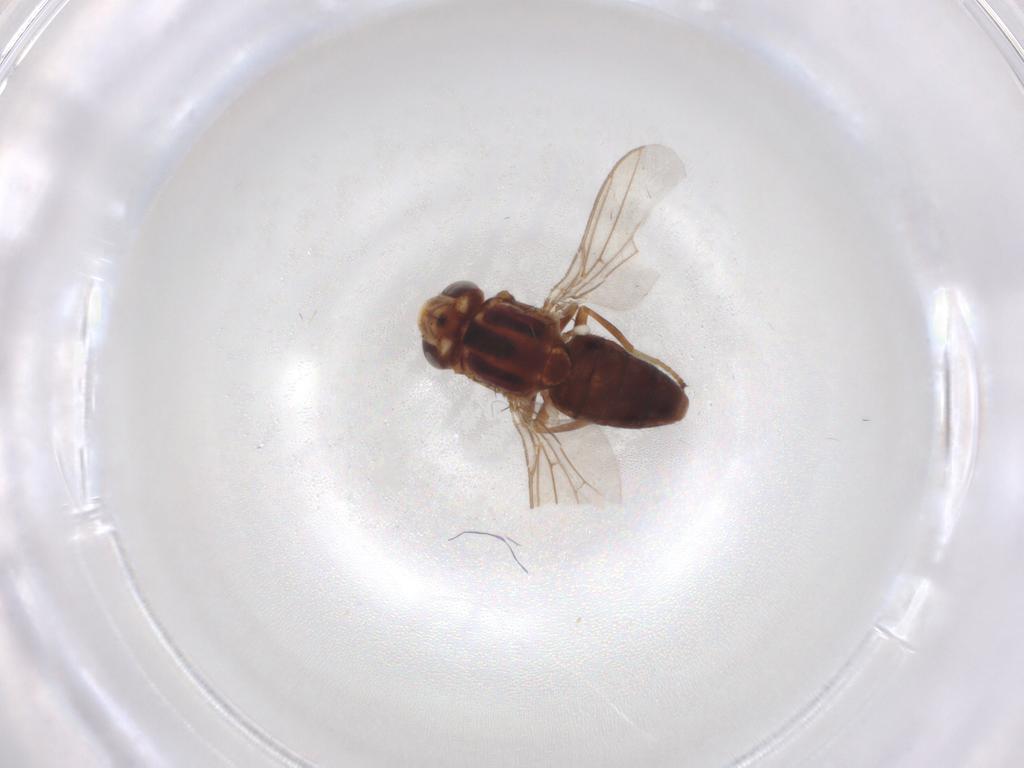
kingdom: Animalia
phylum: Arthropoda
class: Insecta
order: Diptera
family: Chloropidae
